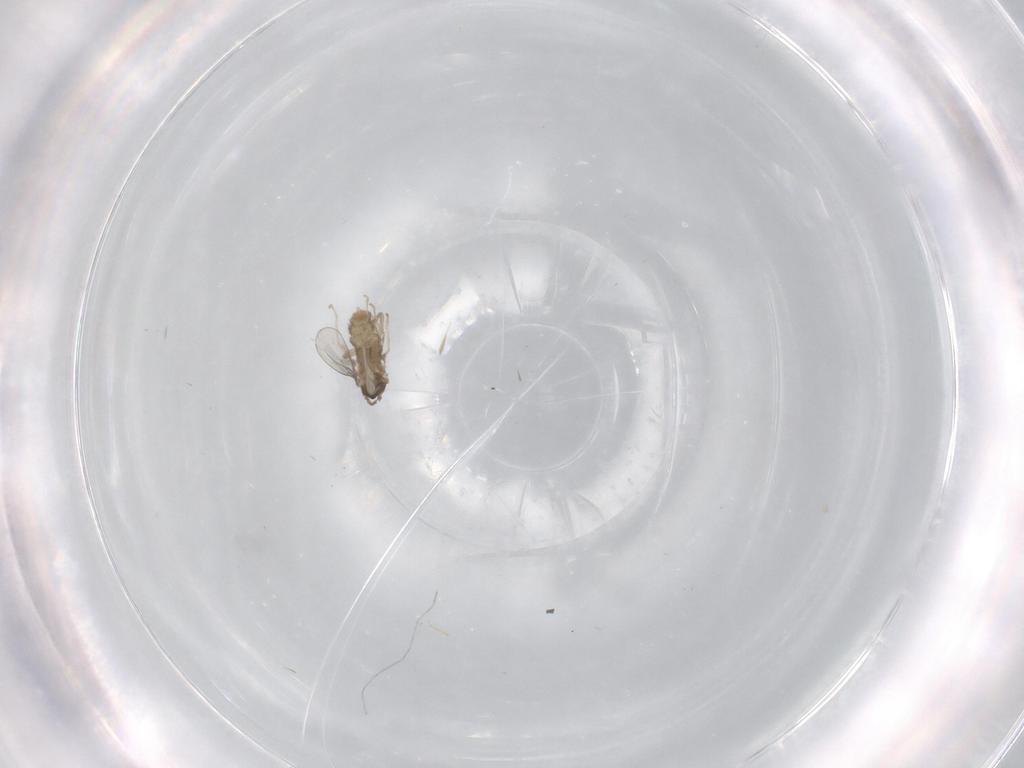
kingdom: Animalia
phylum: Arthropoda
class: Insecta
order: Diptera
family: Cecidomyiidae
